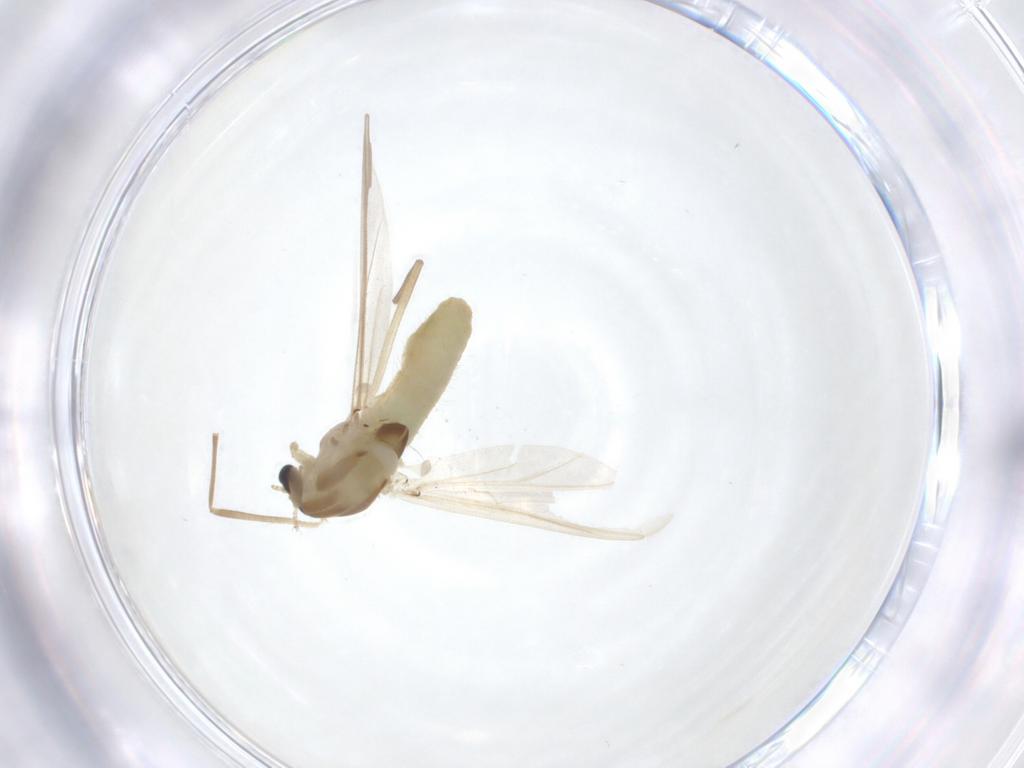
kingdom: Animalia
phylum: Arthropoda
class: Insecta
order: Diptera
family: Chironomidae
